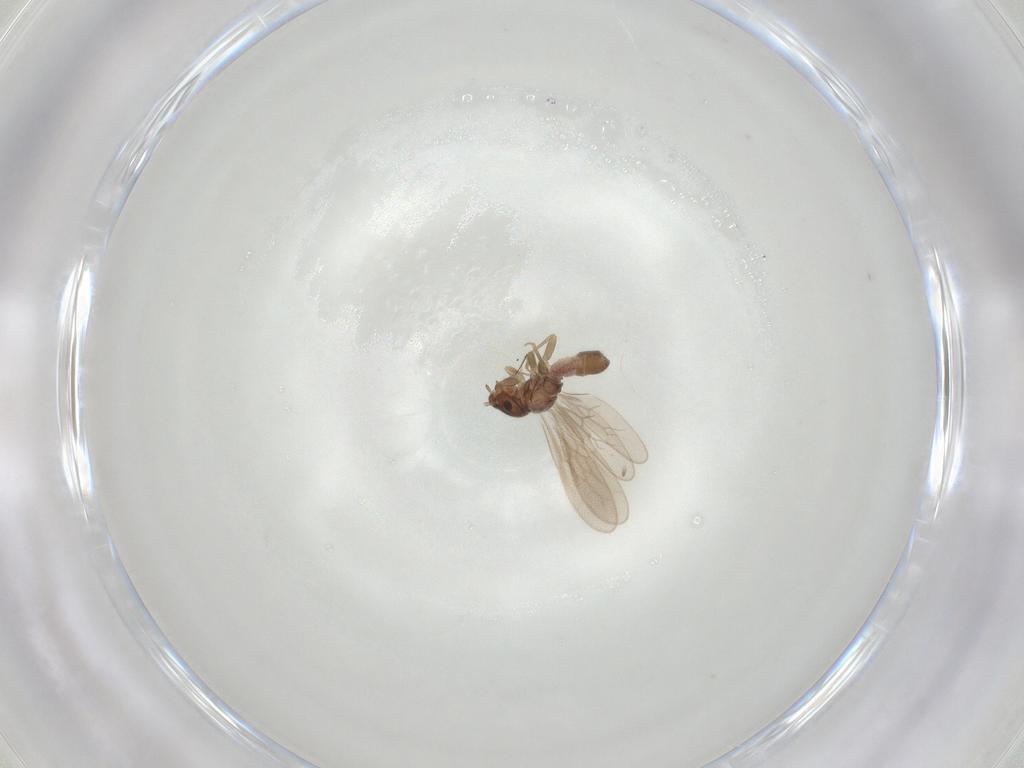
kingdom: Animalia
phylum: Arthropoda
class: Insecta
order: Psocodea
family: Archipsocidae
